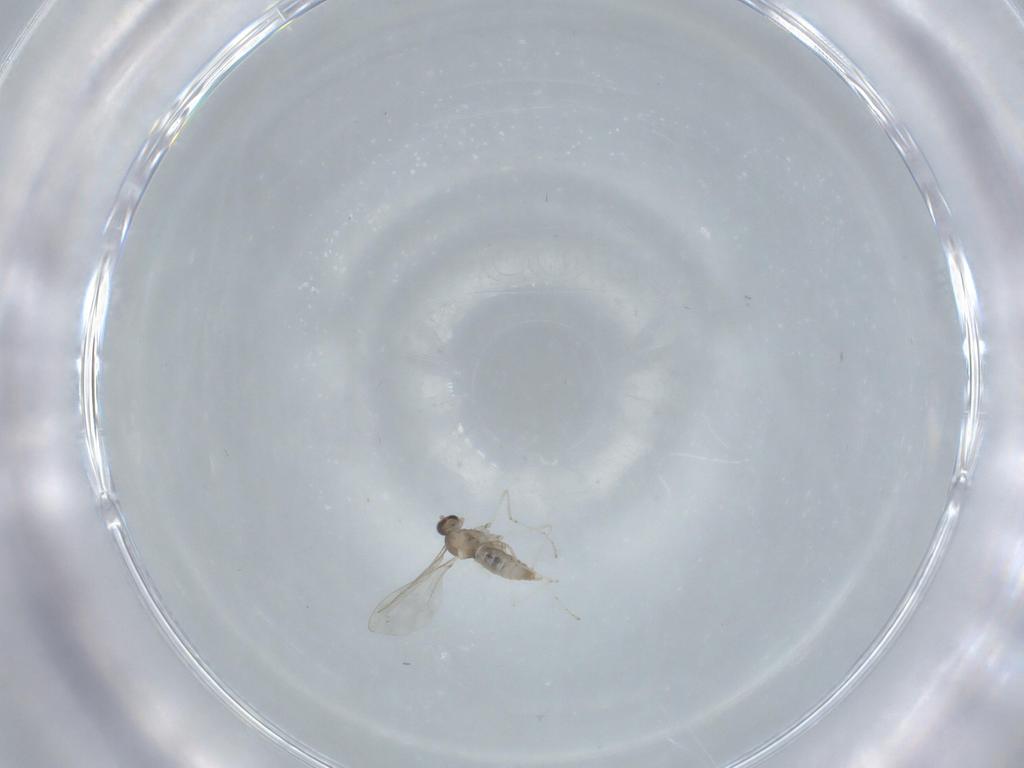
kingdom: Animalia
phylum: Arthropoda
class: Insecta
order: Diptera
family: Cecidomyiidae
